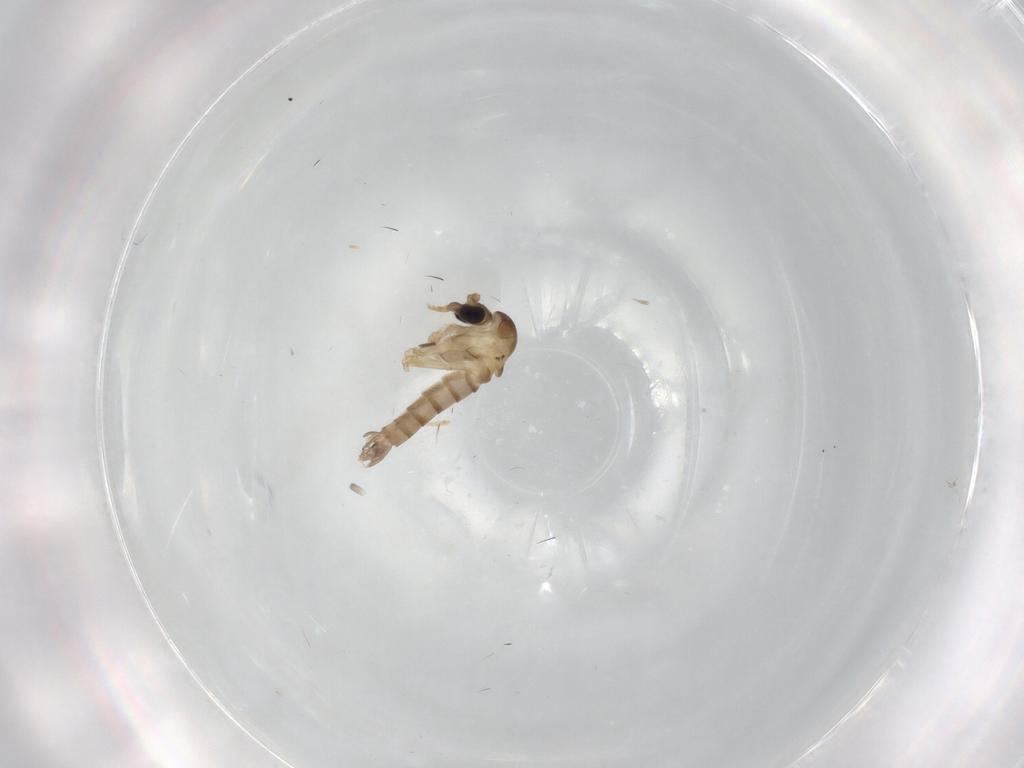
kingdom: Animalia
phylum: Arthropoda
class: Insecta
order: Diptera
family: Psychodidae
